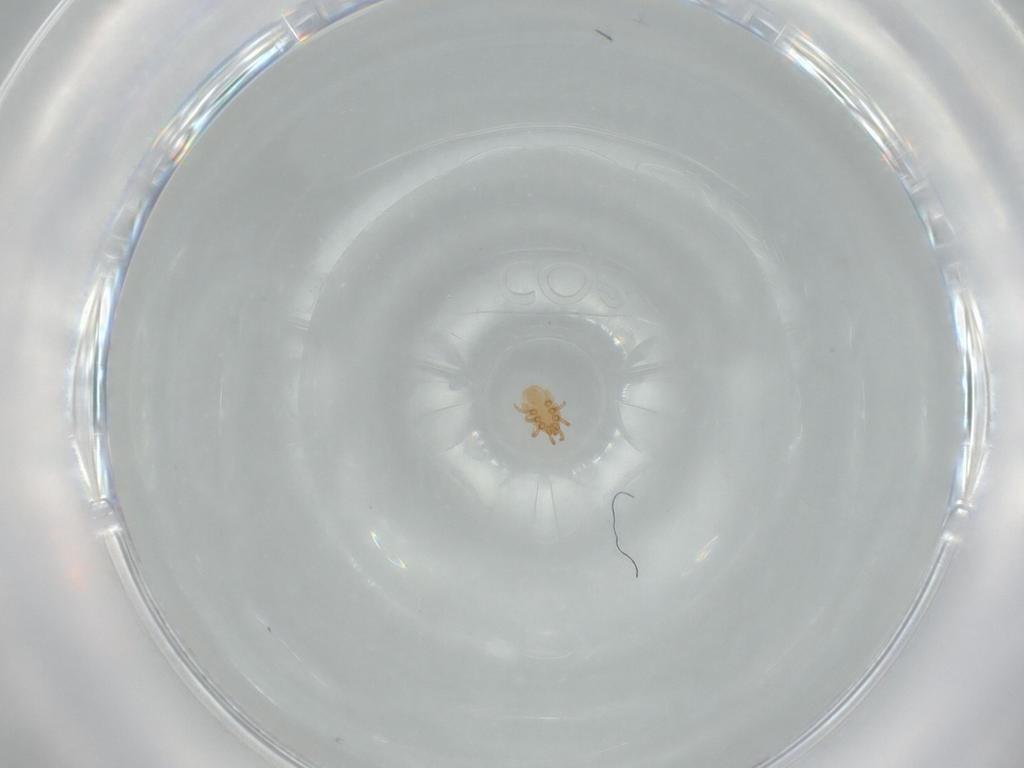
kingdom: Animalia
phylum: Arthropoda
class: Arachnida
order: Mesostigmata
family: Dinychidae
